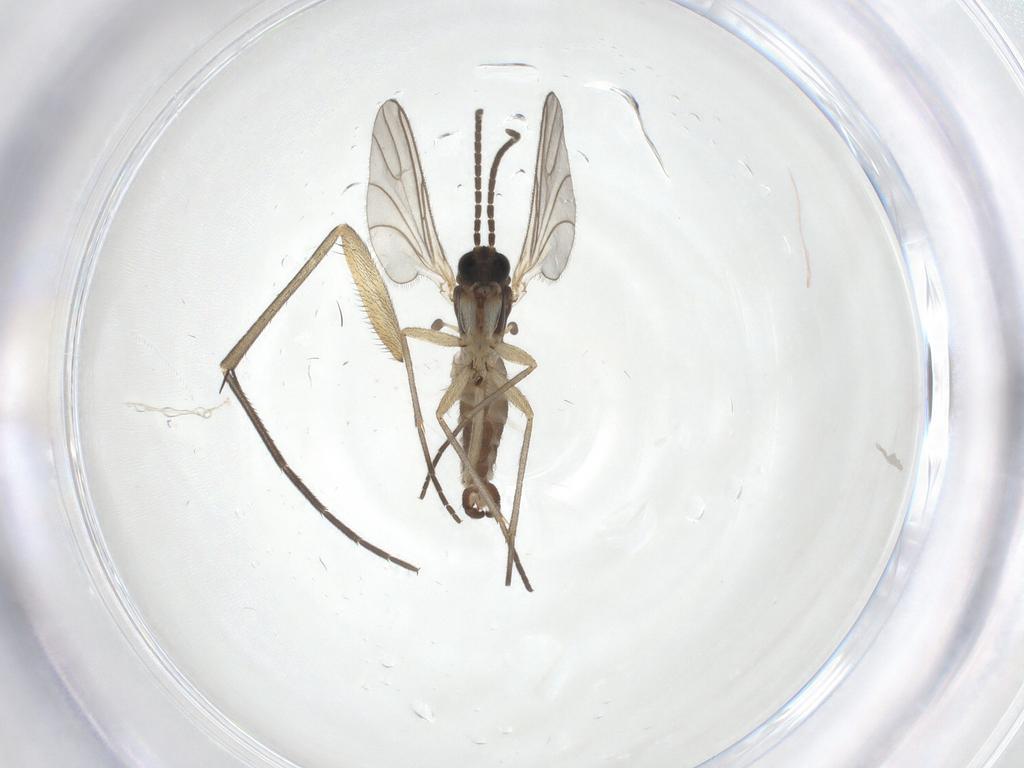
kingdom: Animalia
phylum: Arthropoda
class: Insecta
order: Diptera
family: Sciaridae
